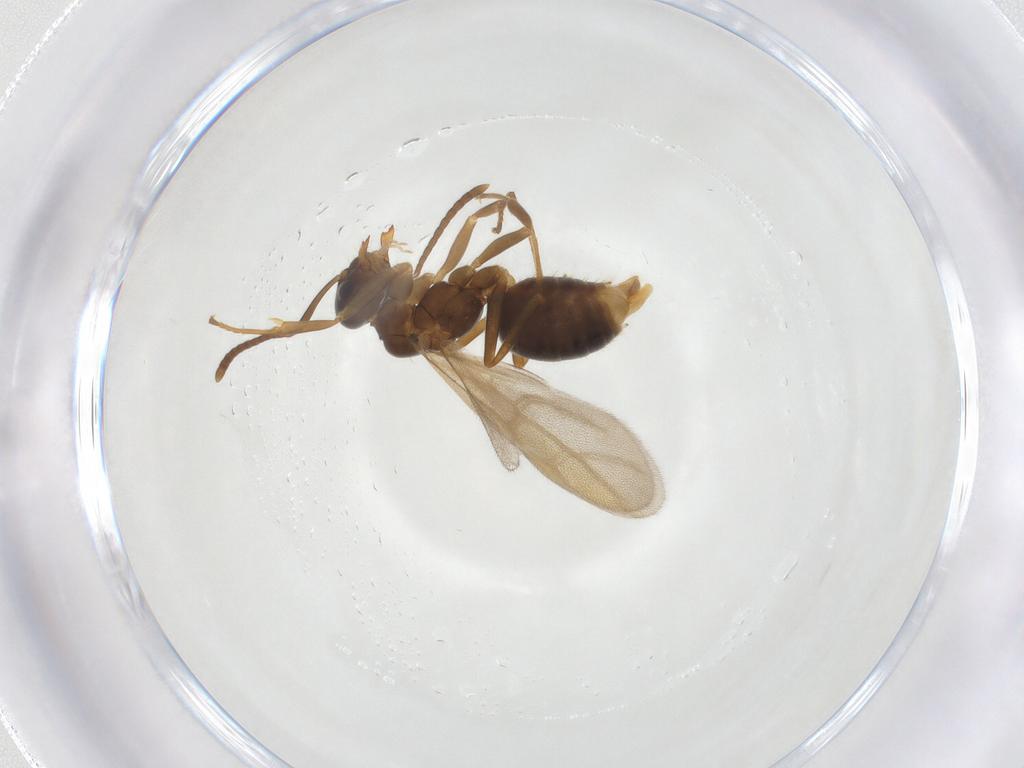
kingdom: Animalia
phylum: Arthropoda
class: Insecta
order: Hymenoptera
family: Formicidae
